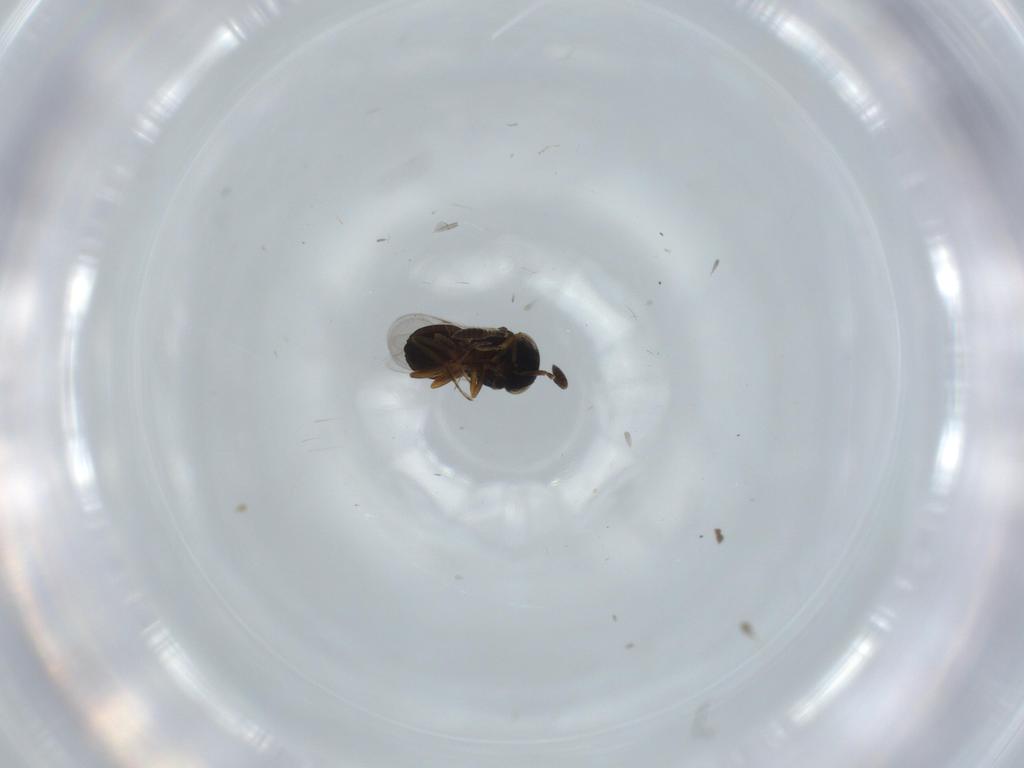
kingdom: Animalia
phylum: Arthropoda
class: Insecta
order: Coleoptera
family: Curculionidae
